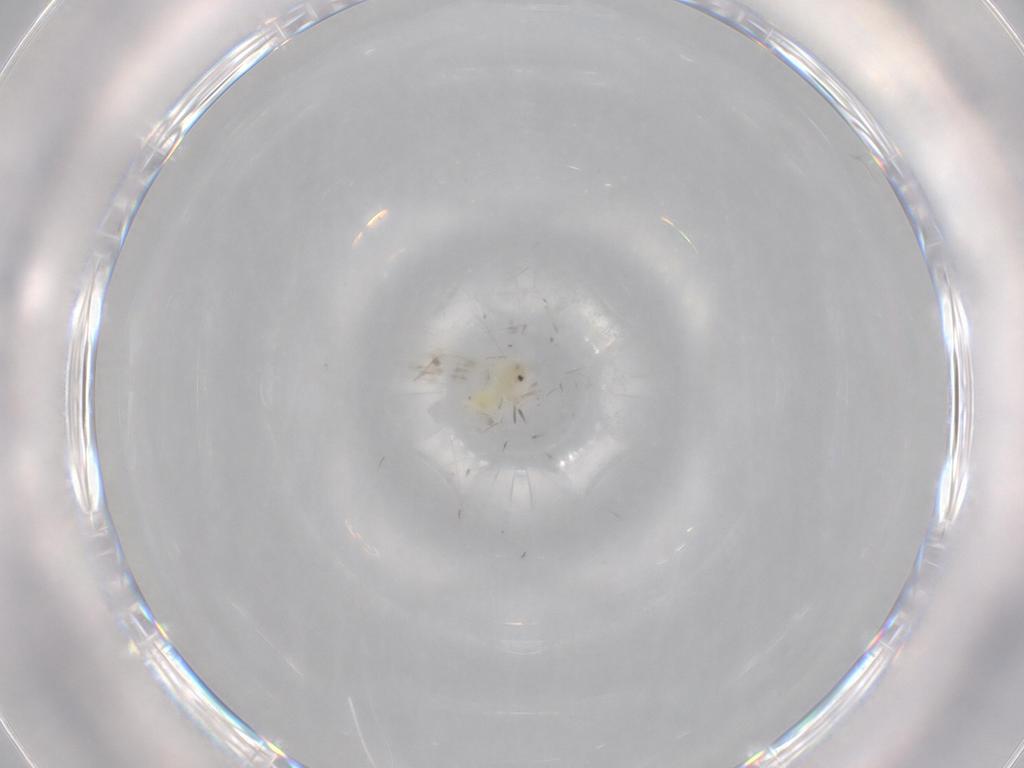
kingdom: Animalia
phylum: Arthropoda
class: Insecta
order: Hemiptera
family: Aleyrodidae
